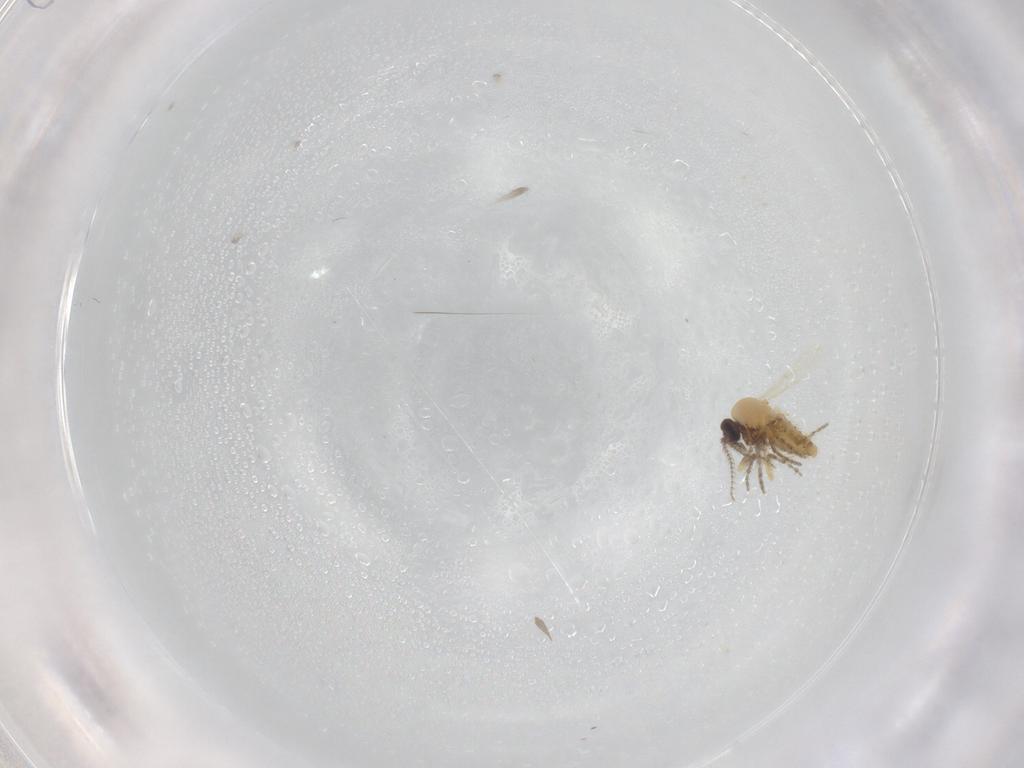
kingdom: Animalia
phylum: Arthropoda
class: Insecta
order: Diptera
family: Ceratopogonidae
